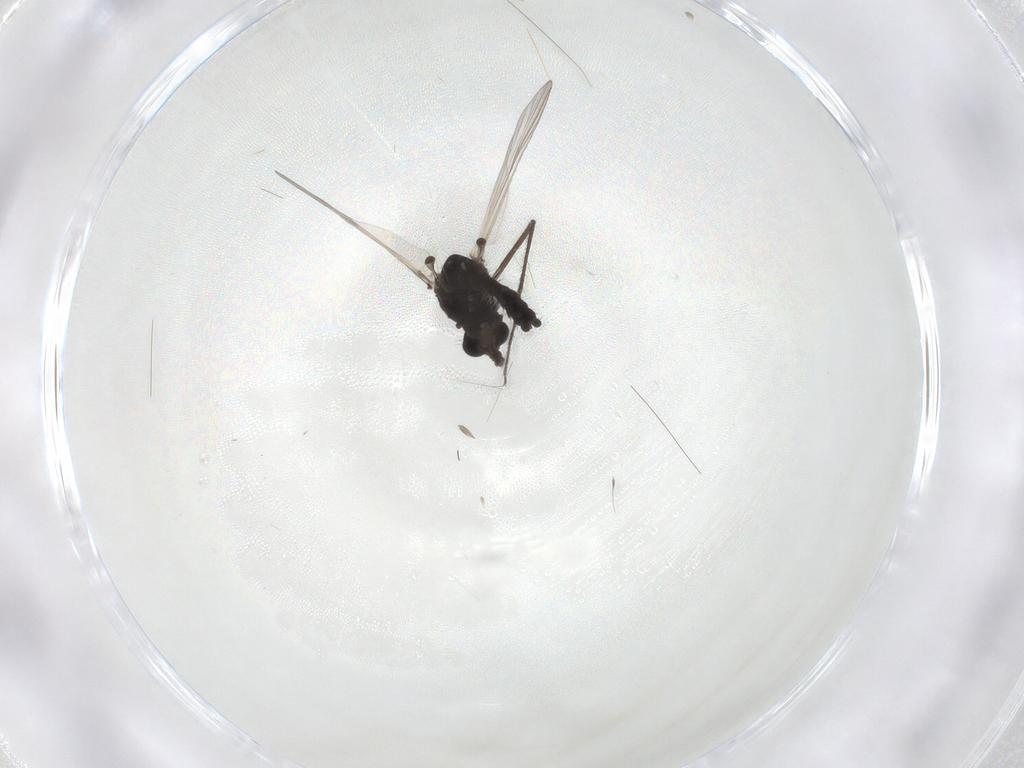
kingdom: Animalia
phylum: Arthropoda
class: Insecta
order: Diptera
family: Chironomidae
